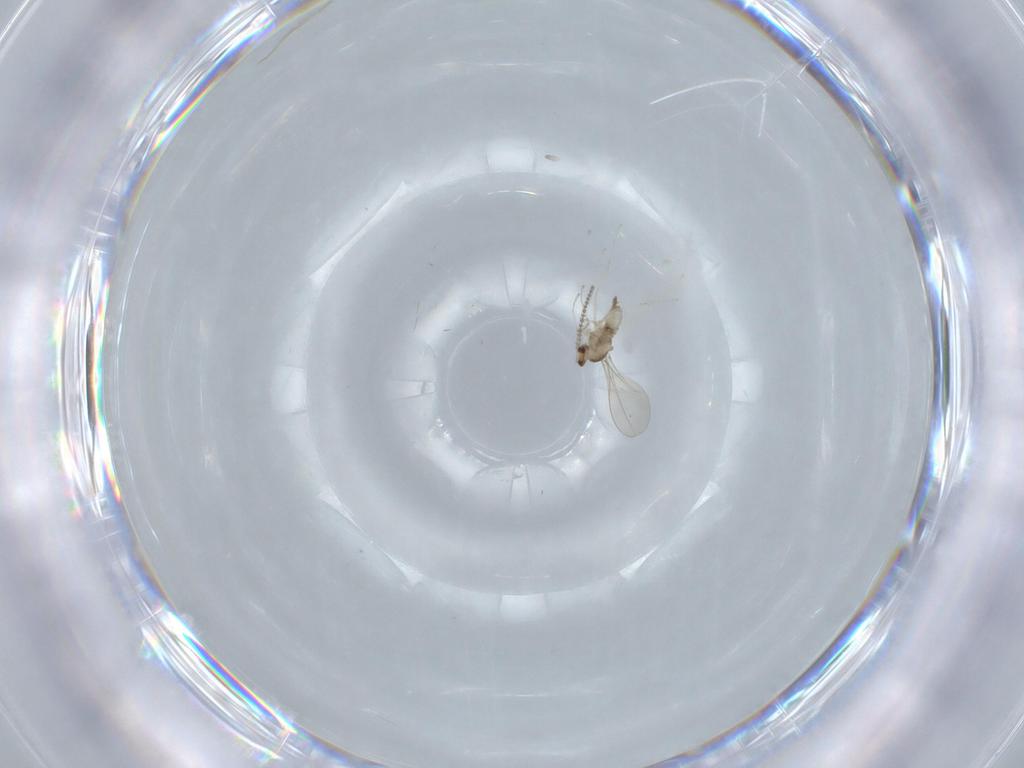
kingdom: Animalia
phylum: Arthropoda
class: Insecta
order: Diptera
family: Cecidomyiidae
